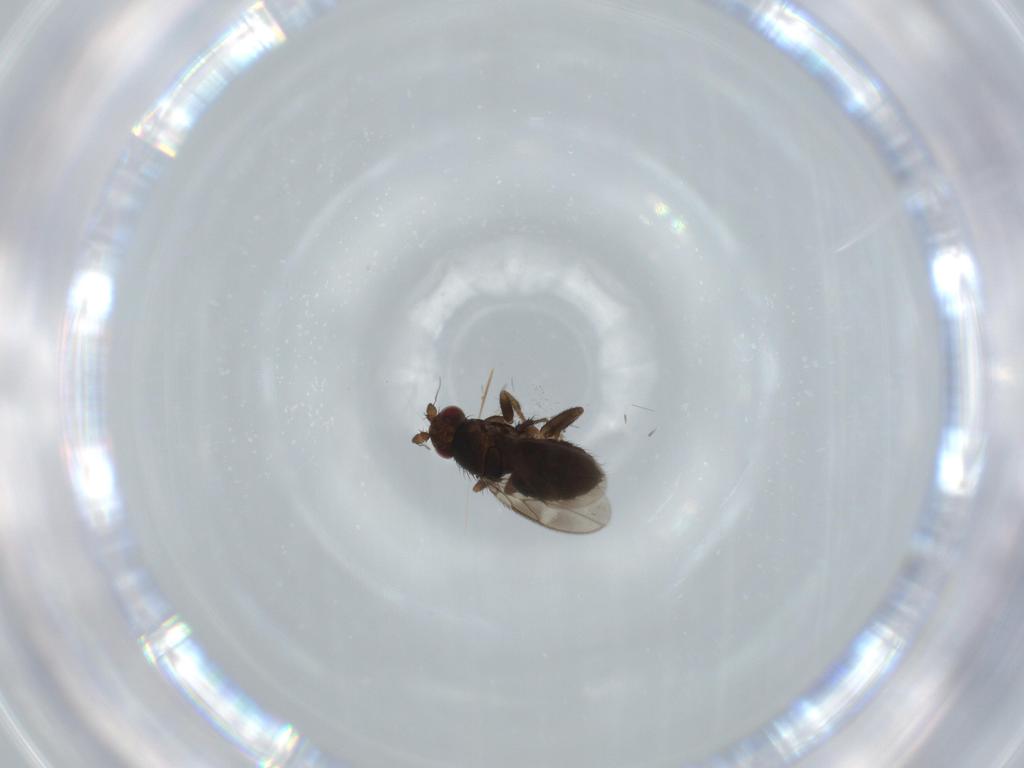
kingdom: Animalia
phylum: Arthropoda
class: Insecta
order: Diptera
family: Sphaeroceridae
